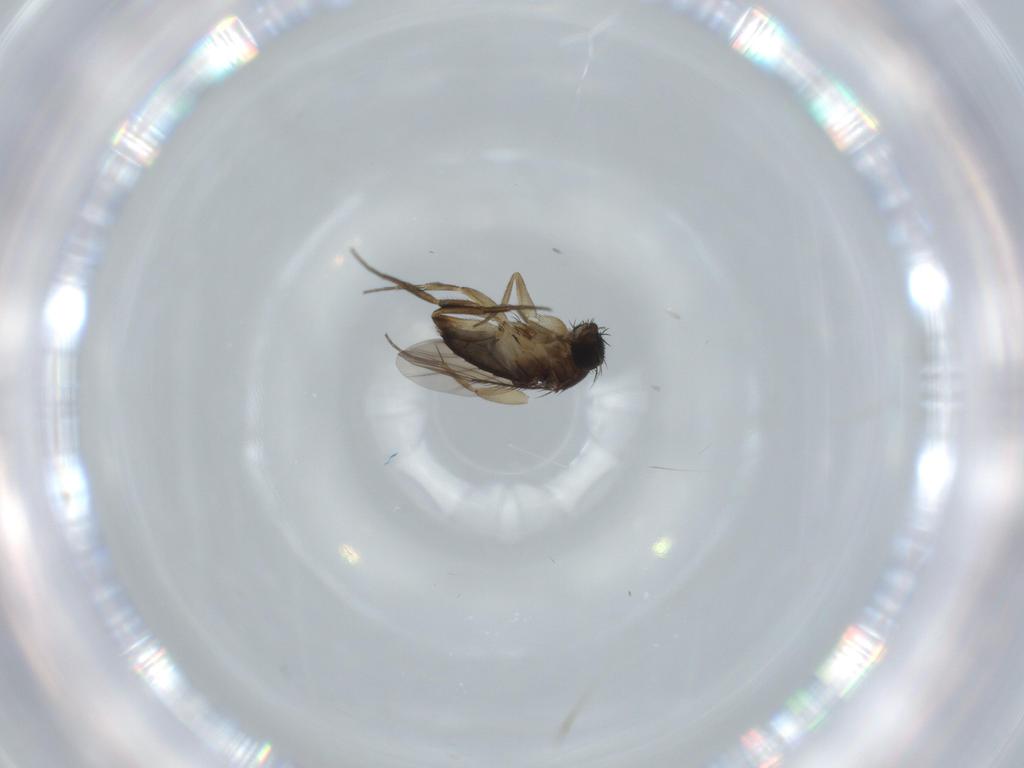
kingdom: Animalia
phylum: Arthropoda
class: Insecta
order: Diptera
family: Phoridae
